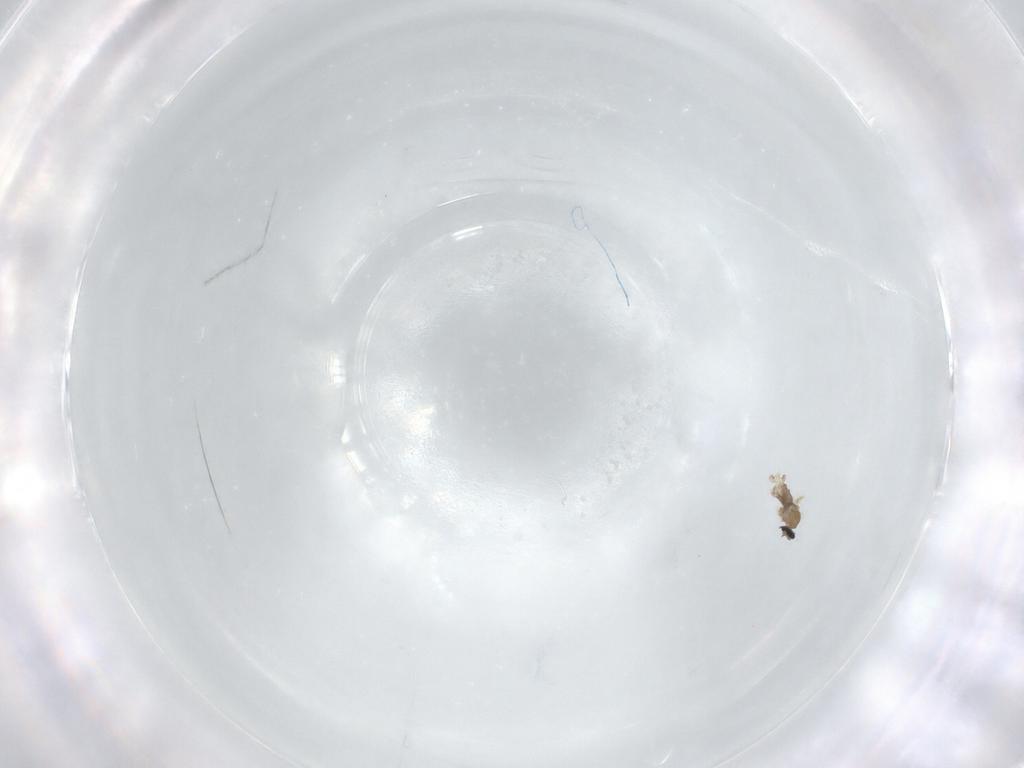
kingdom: Animalia
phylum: Arthropoda
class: Insecta
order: Diptera
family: Cecidomyiidae
